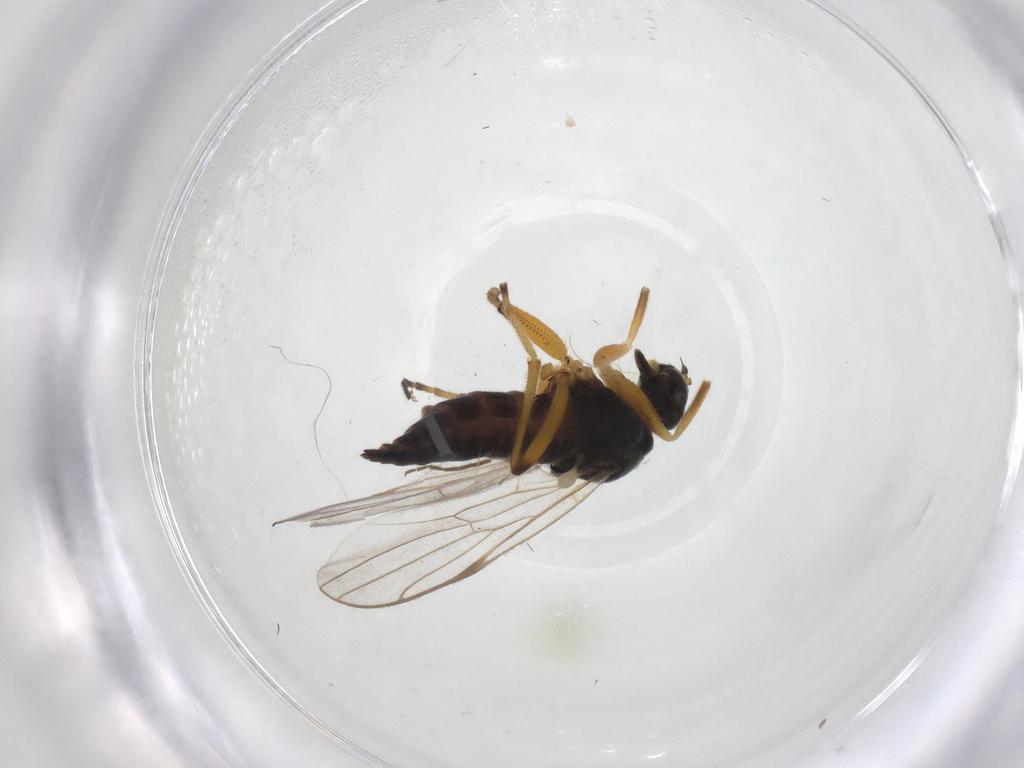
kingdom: Animalia
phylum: Arthropoda
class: Insecta
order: Diptera
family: Hybotidae
